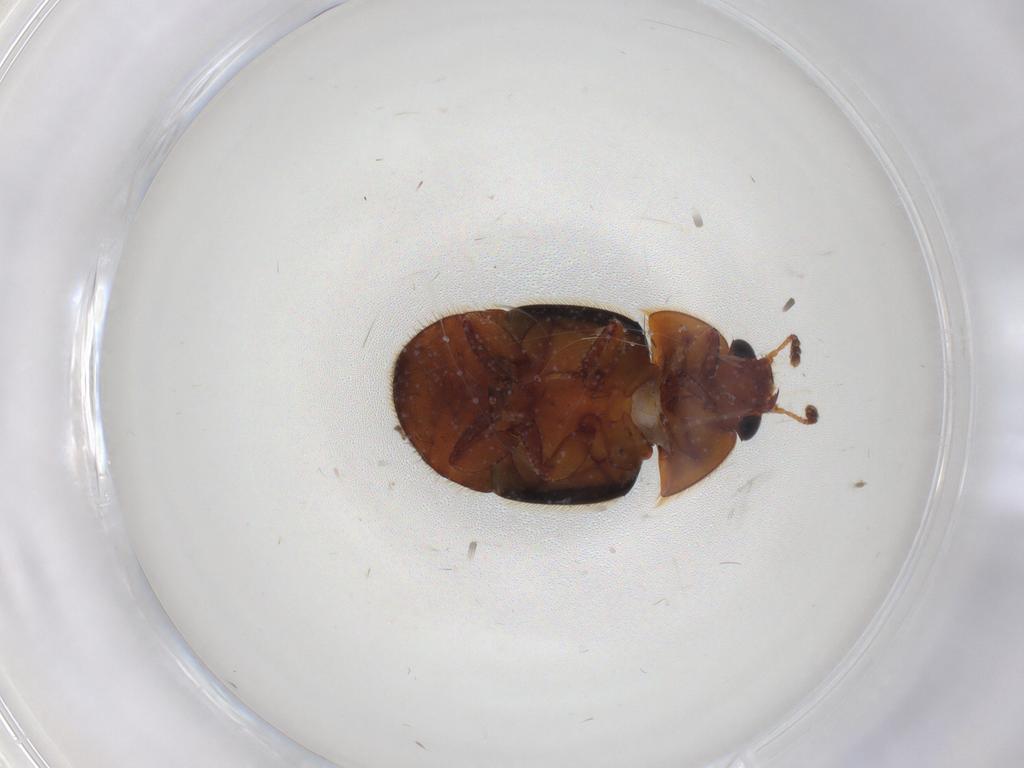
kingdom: Animalia
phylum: Arthropoda
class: Insecta
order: Coleoptera
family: Nitidulidae
